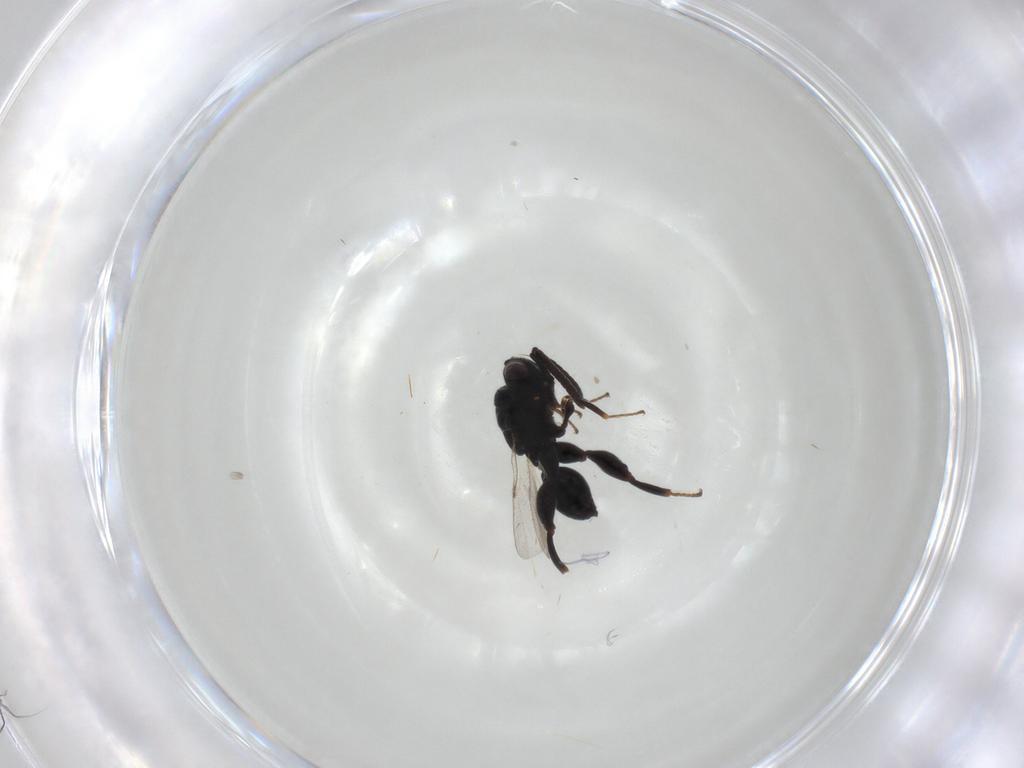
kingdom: Animalia
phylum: Arthropoda
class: Insecta
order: Hymenoptera
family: Chalcididae
